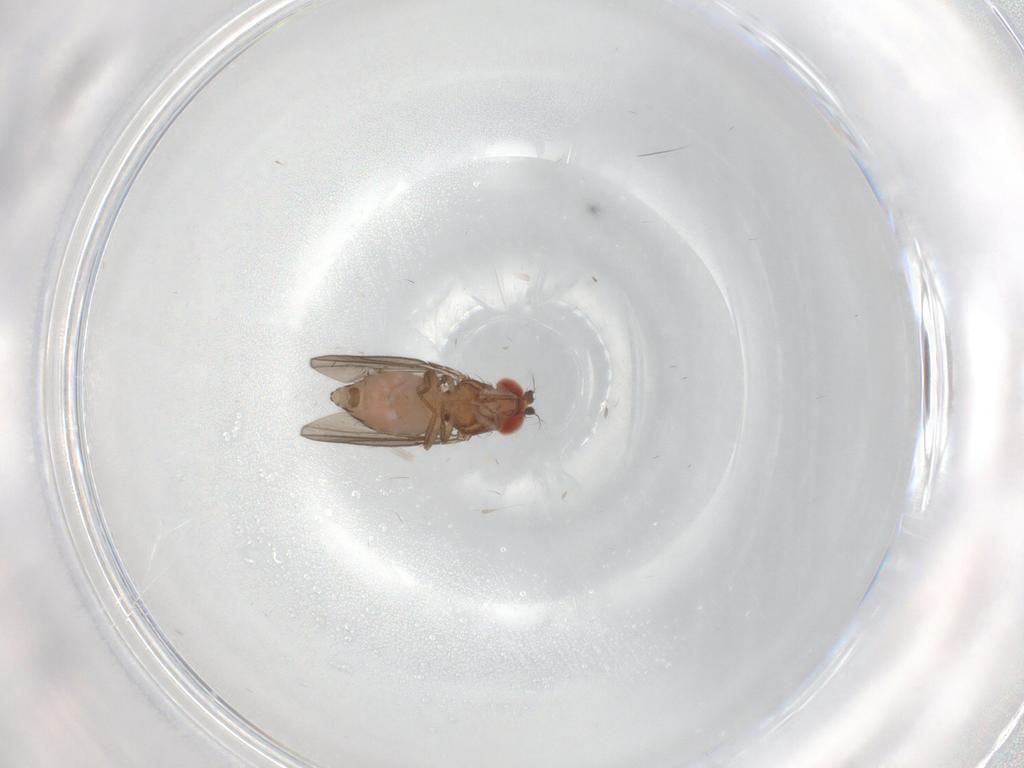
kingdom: Animalia
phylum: Arthropoda
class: Insecta
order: Diptera
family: Drosophilidae
